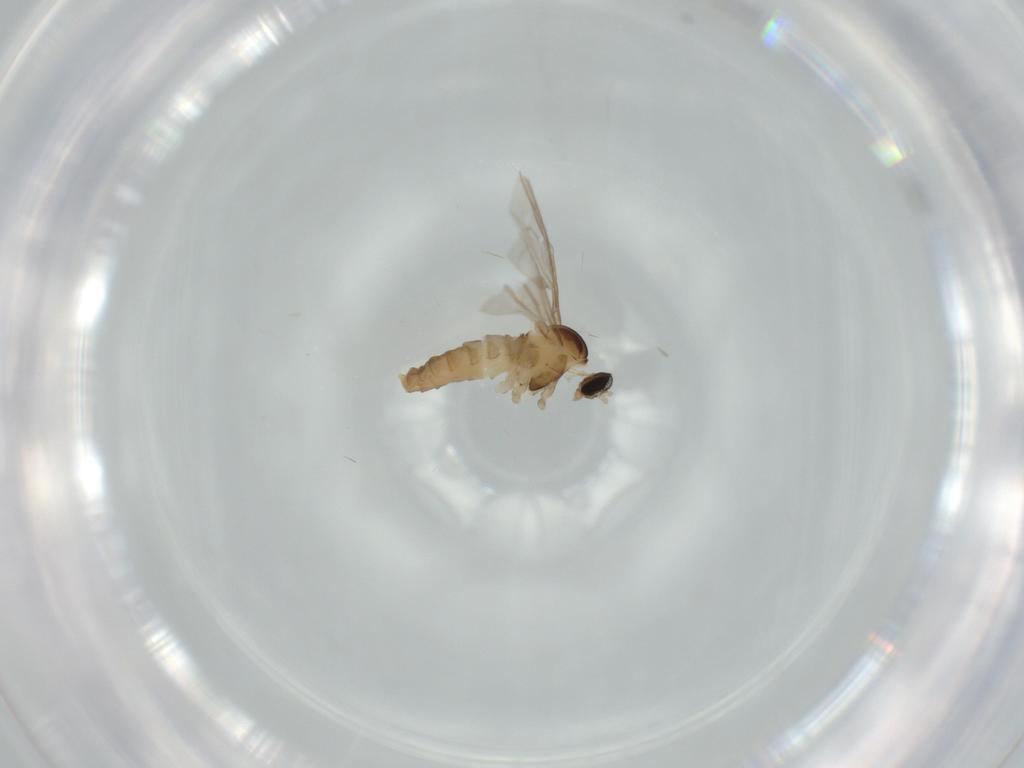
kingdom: Animalia
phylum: Arthropoda
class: Insecta
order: Diptera
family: Cecidomyiidae
